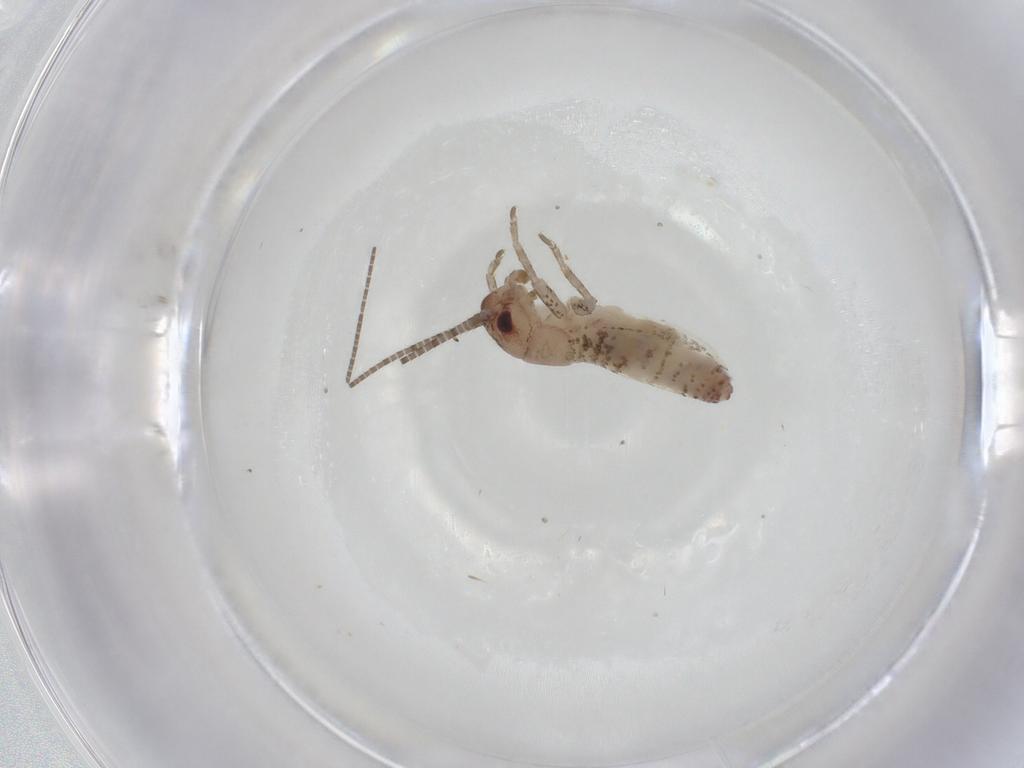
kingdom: Animalia
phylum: Arthropoda
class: Insecta
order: Orthoptera
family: Gryllidae
